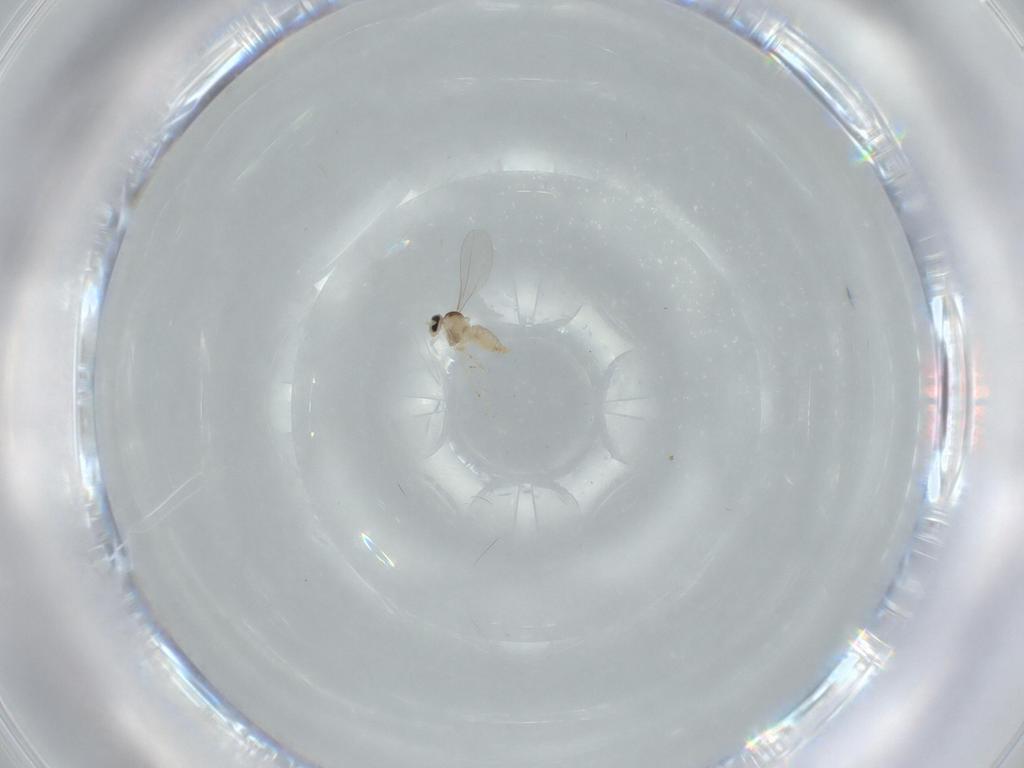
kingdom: Animalia
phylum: Arthropoda
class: Insecta
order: Diptera
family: Cecidomyiidae
